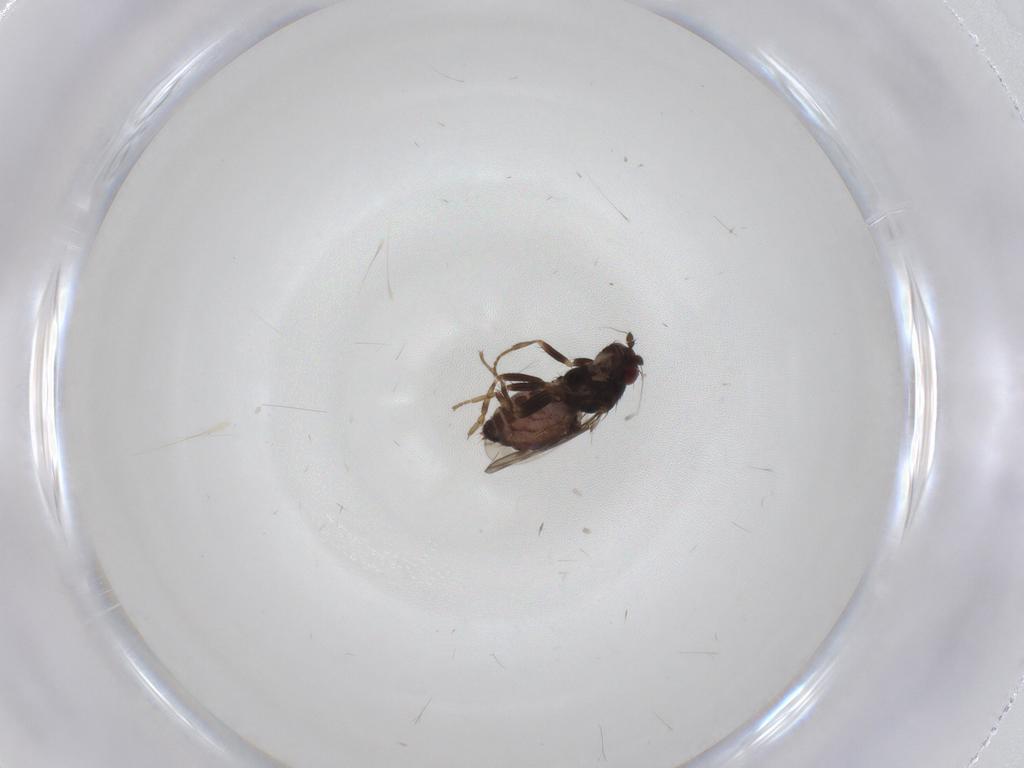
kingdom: Animalia
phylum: Arthropoda
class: Insecta
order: Diptera
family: Sphaeroceridae
